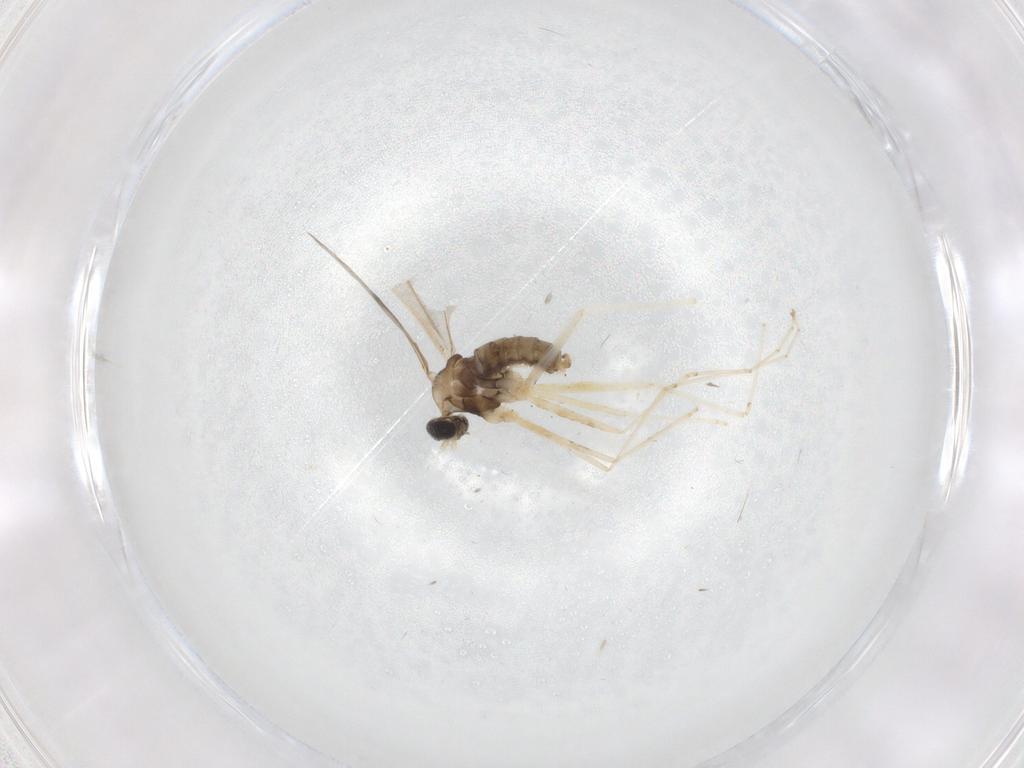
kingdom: Animalia
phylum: Arthropoda
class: Insecta
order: Diptera
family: Cecidomyiidae
